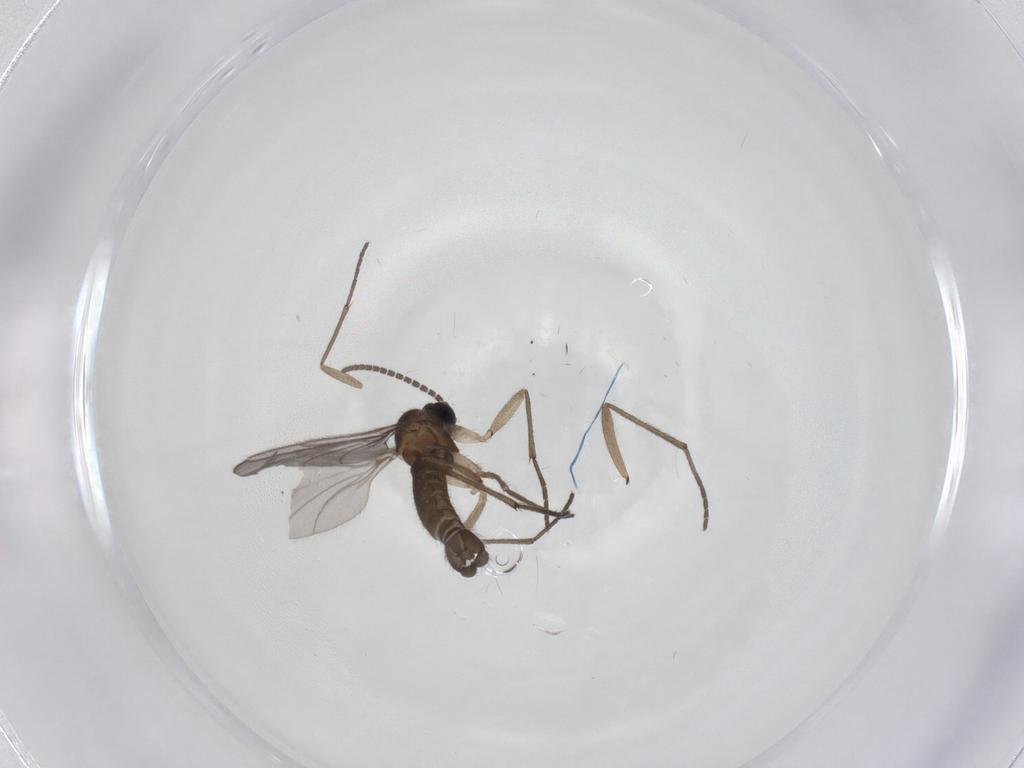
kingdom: Animalia
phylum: Arthropoda
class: Insecta
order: Diptera
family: Sciaridae
